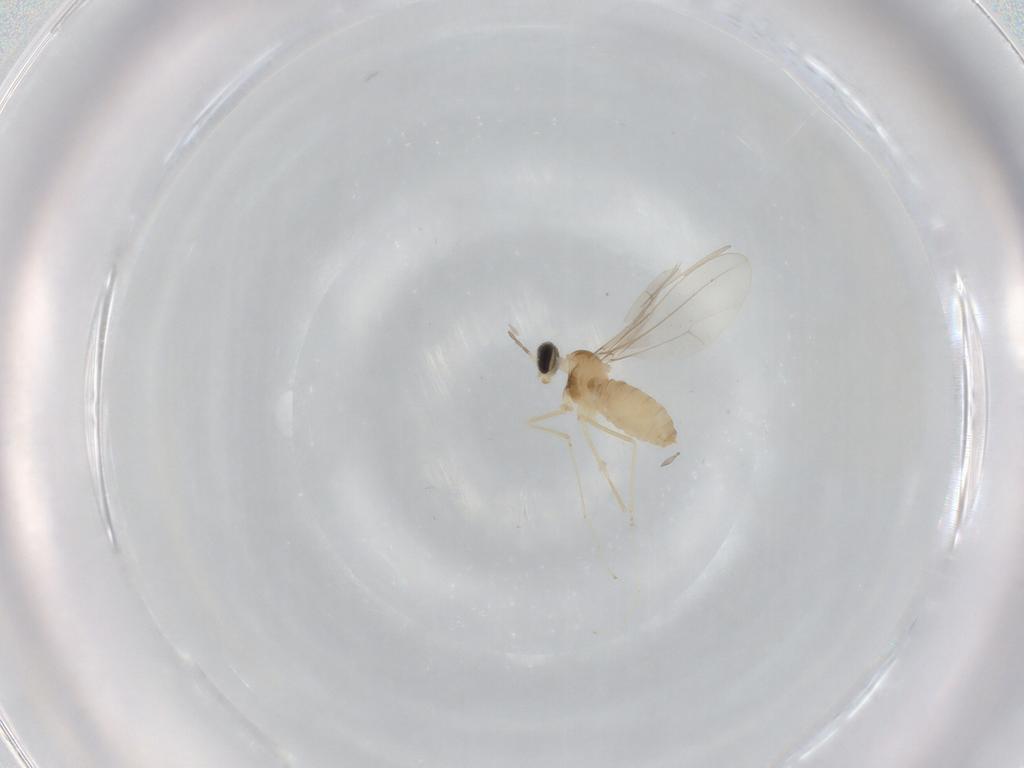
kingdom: Animalia
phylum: Arthropoda
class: Insecta
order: Diptera
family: Cecidomyiidae
